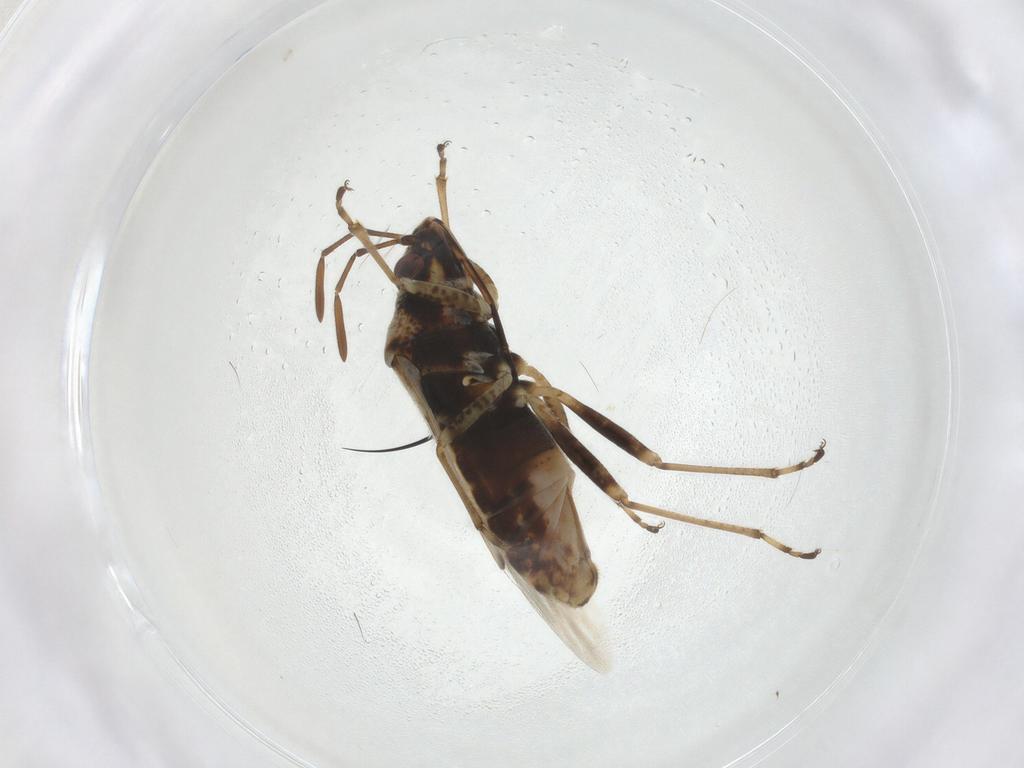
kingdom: Animalia
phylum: Arthropoda
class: Insecta
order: Hemiptera
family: Lygaeidae
